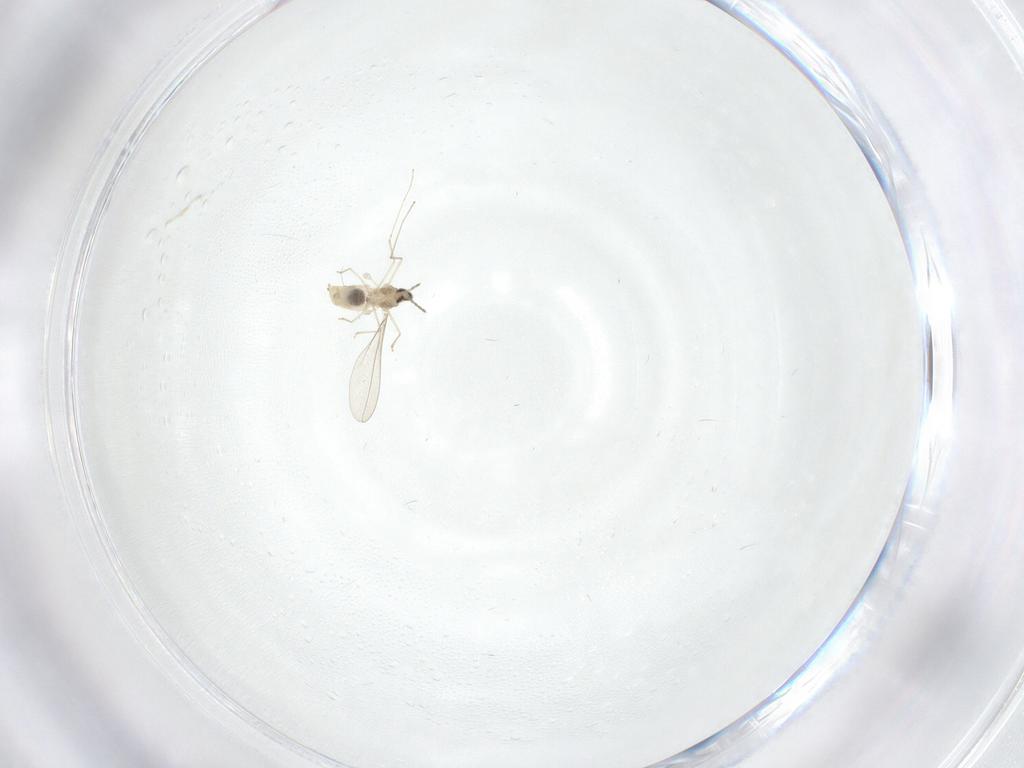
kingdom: Animalia
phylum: Arthropoda
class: Insecta
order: Diptera
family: Cecidomyiidae
